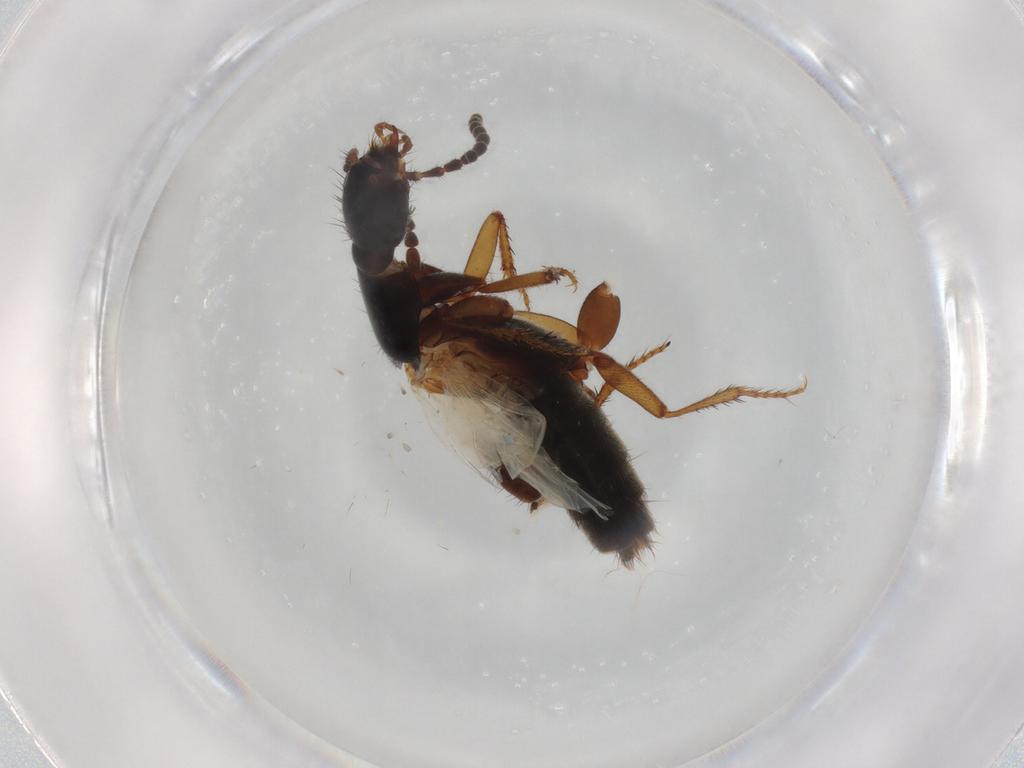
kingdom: Animalia
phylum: Arthropoda
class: Insecta
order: Coleoptera
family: Staphylinidae
